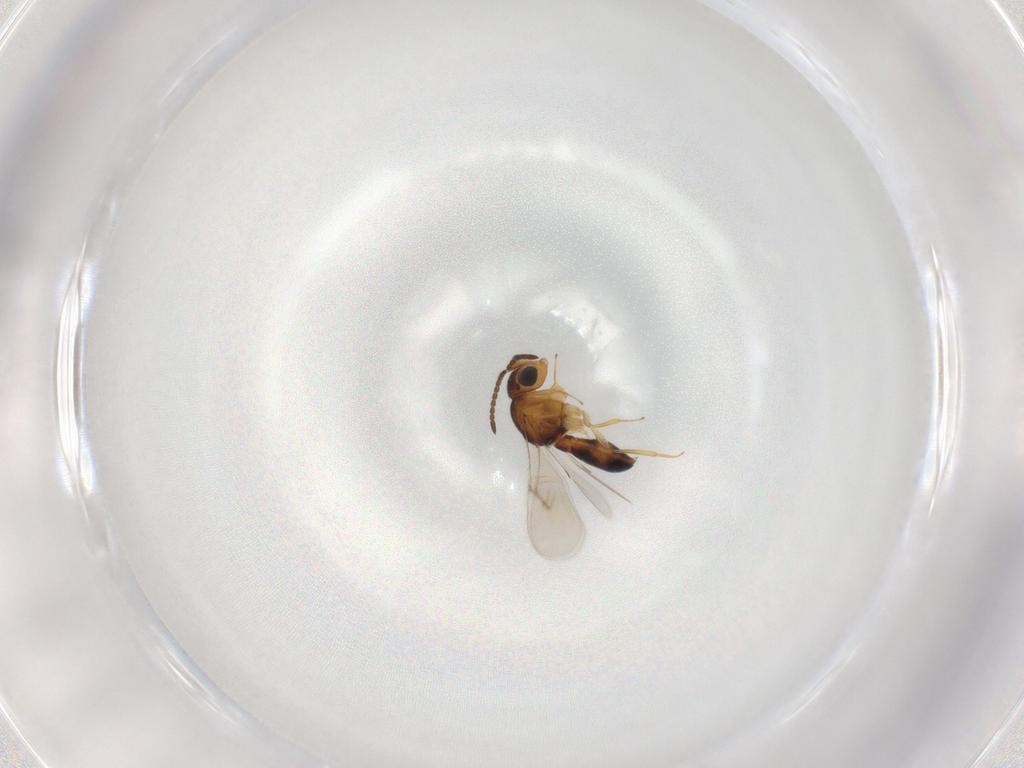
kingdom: Animalia
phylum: Arthropoda
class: Insecta
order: Hymenoptera
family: Scelionidae
